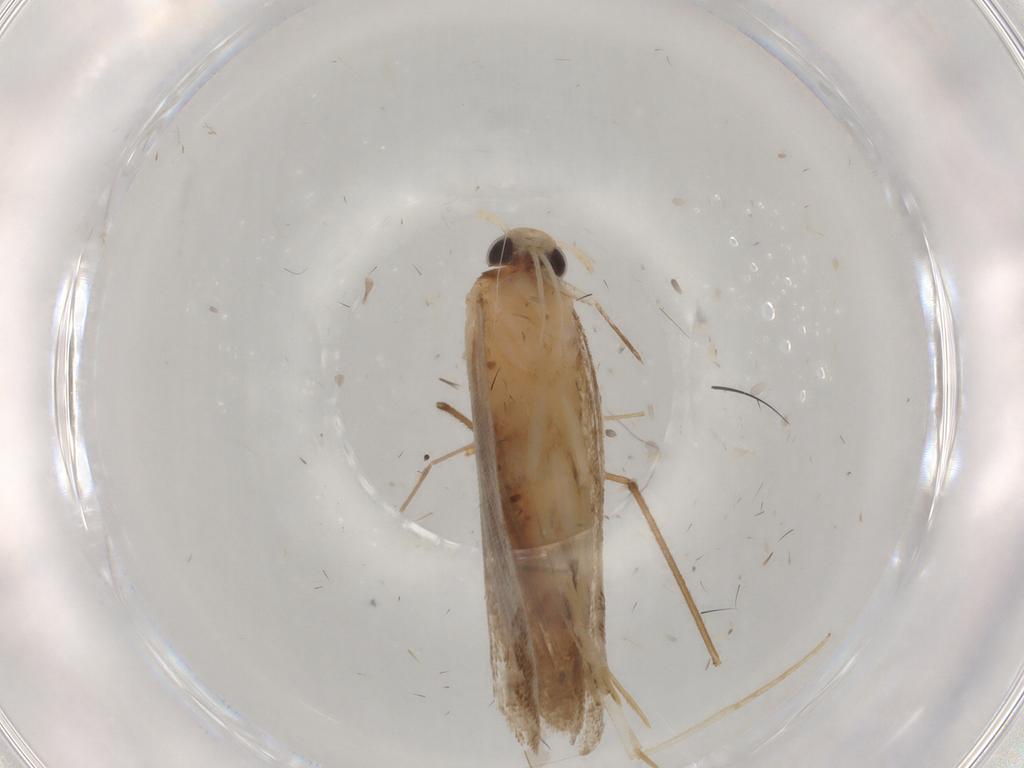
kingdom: Animalia
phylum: Arthropoda
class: Insecta
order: Lepidoptera
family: Gelechiidae
